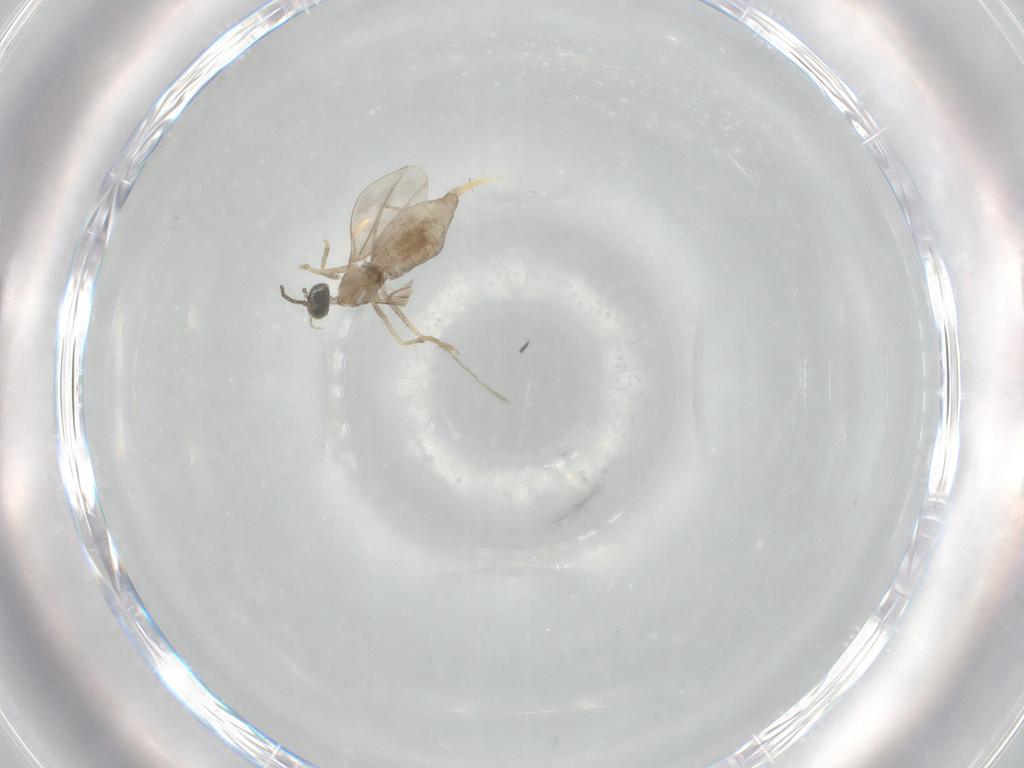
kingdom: Animalia
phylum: Arthropoda
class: Insecta
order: Diptera
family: Cecidomyiidae
